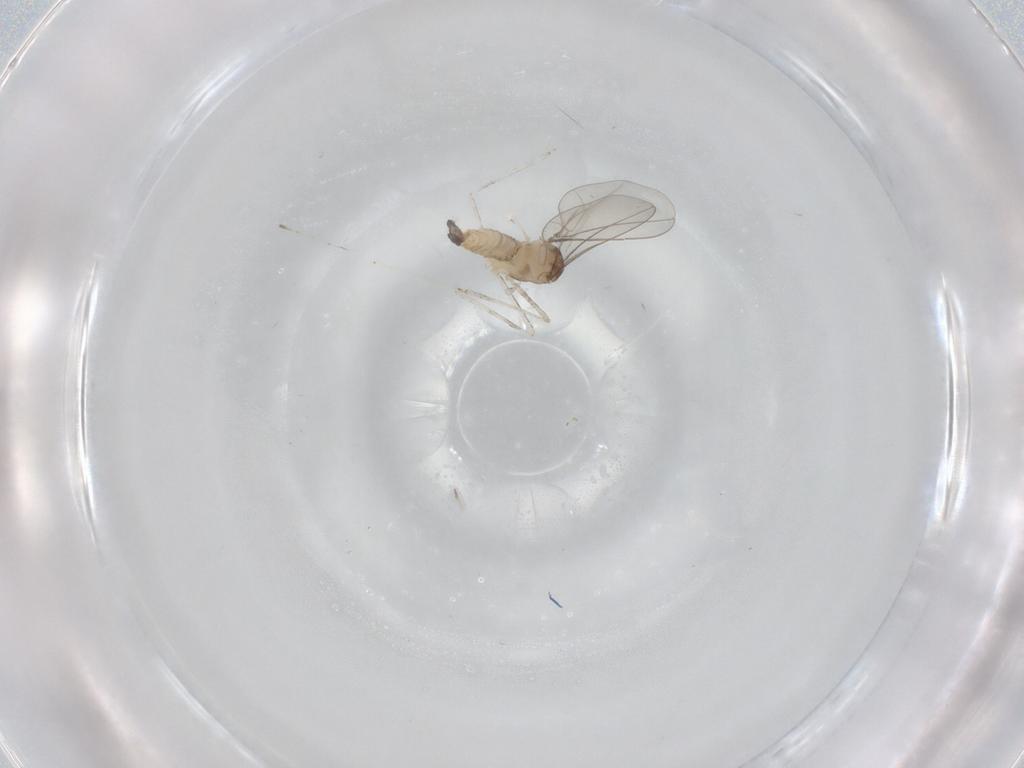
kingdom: Animalia
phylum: Arthropoda
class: Insecta
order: Diptera
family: Cecidomyiidae
